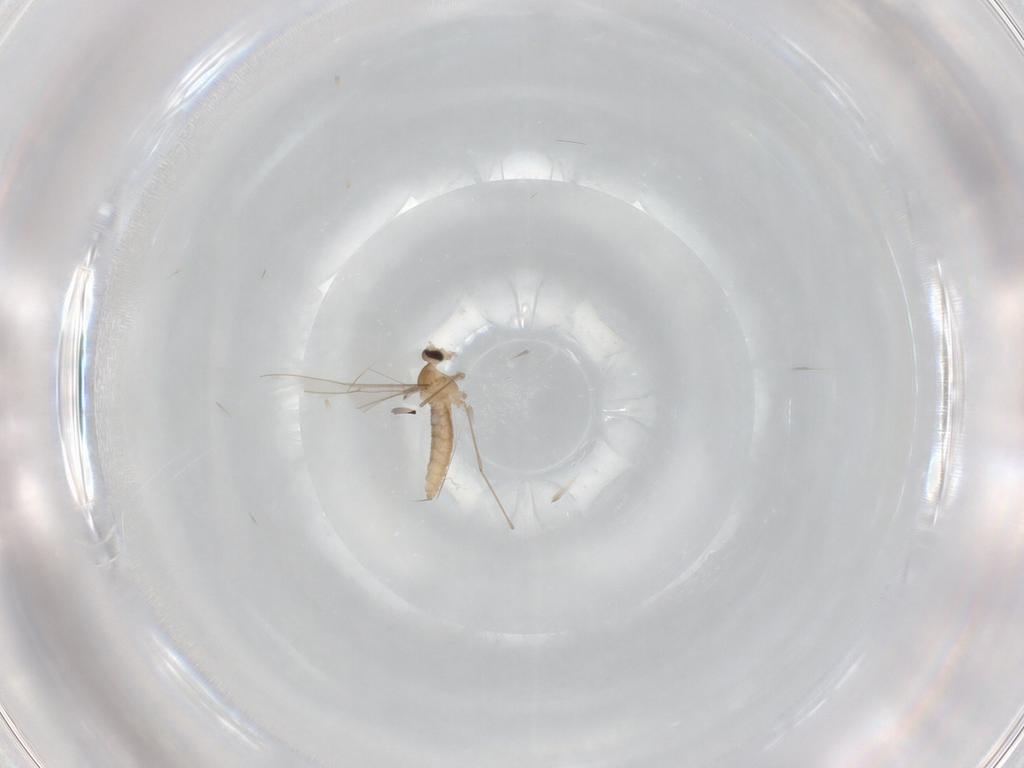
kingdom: Animalia
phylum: Arthropoda
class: Insecta
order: Diptera
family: Cecidomyiidae
